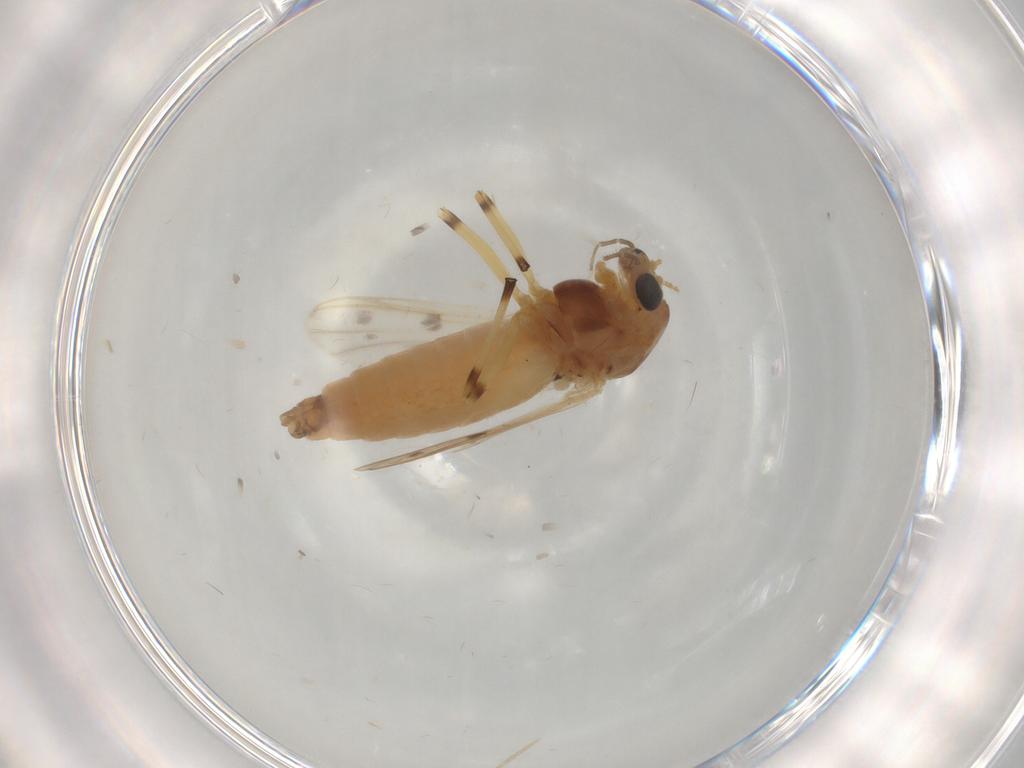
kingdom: Animalia
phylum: Arthropoda
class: Insecta
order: Diptera
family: Chironomidae
